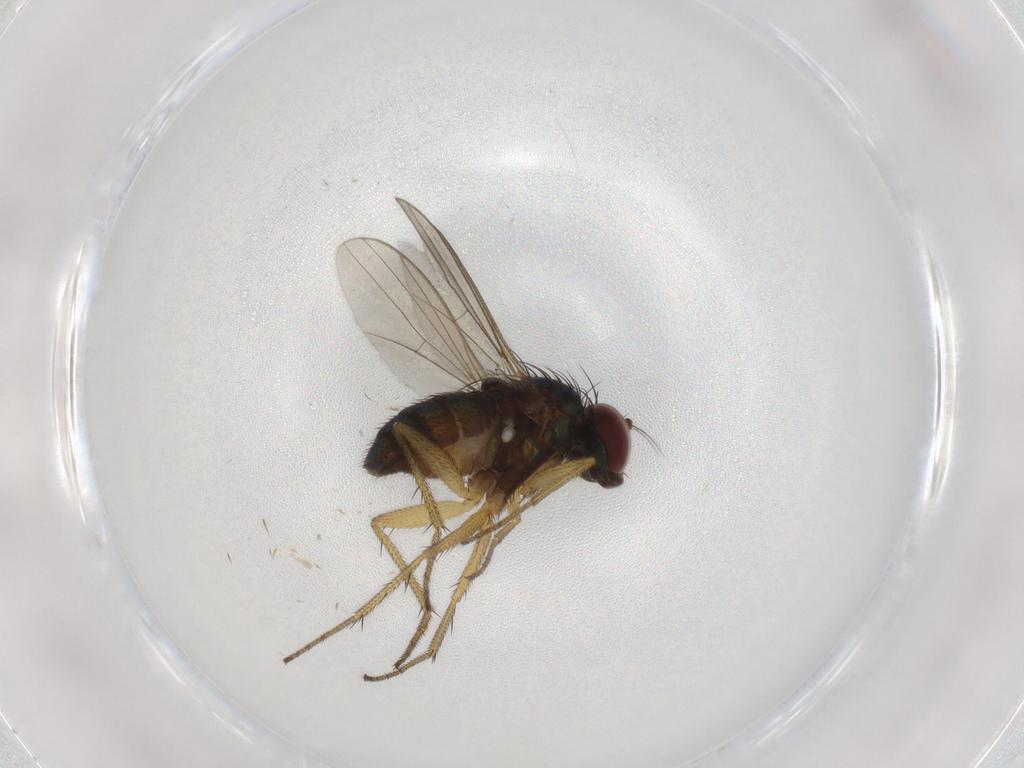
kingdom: Animalia
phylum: Arthropoda
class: Insecta
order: Diptera
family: Dolichopodidae
